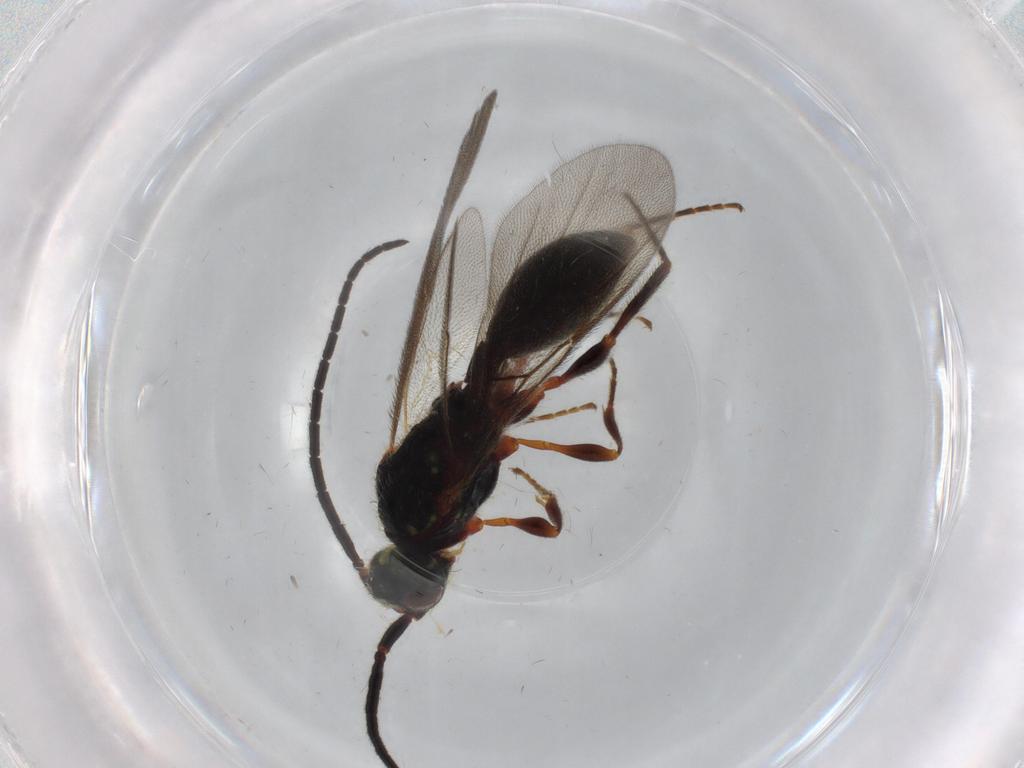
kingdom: Animalia
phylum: Arthropoda
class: Insecta
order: Hymenoptera
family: Diapriidae
